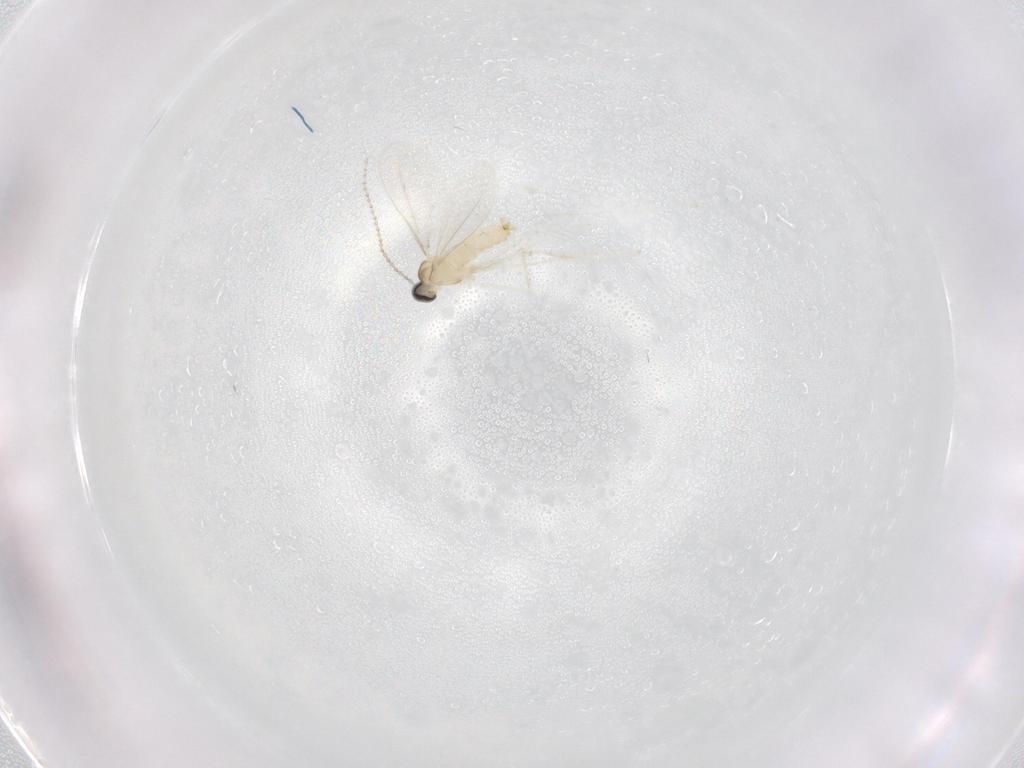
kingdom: Animalia
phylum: Arthropoda
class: Insecta
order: Diptera
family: Cecidomyiidae
